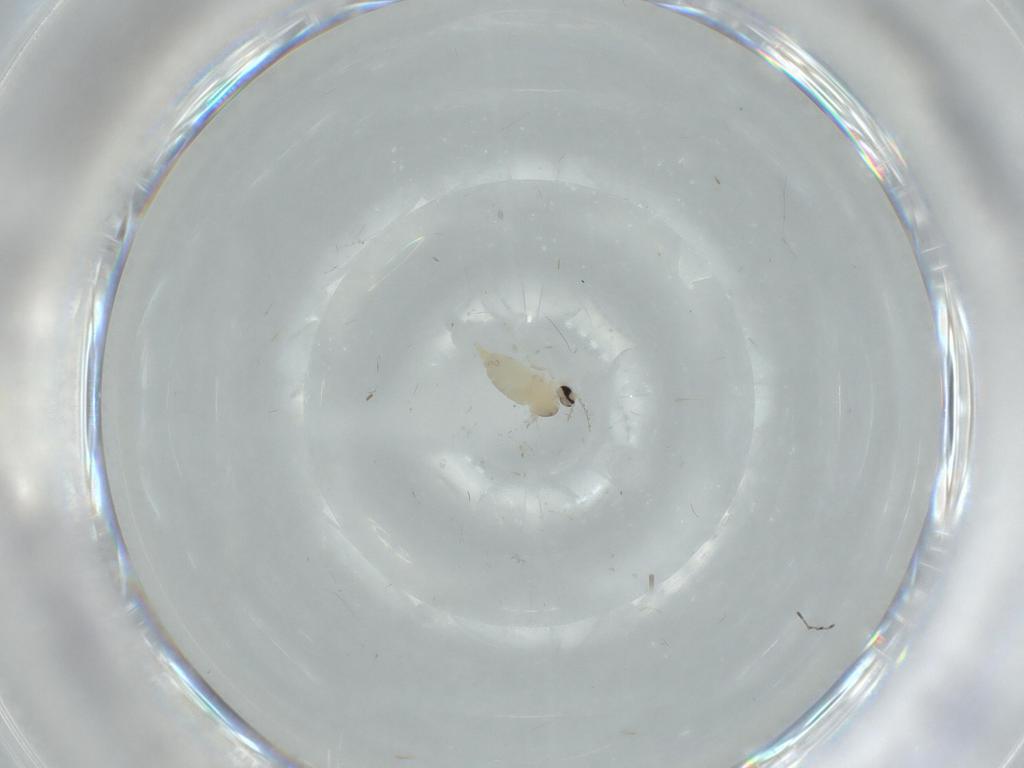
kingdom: Animalia
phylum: Arthropoda
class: Insecta
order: Diptera
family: Cecidomyiidae
